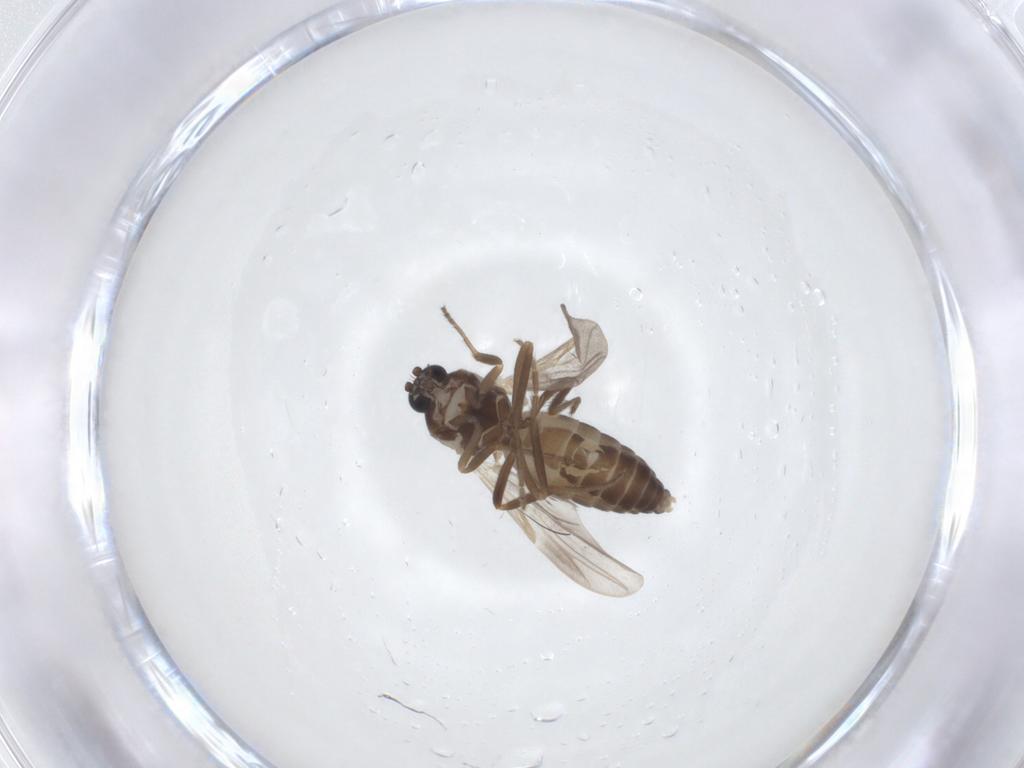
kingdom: Animalia
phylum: Arthropoda
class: Insecta
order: Diptera
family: Ceratopogonidae
